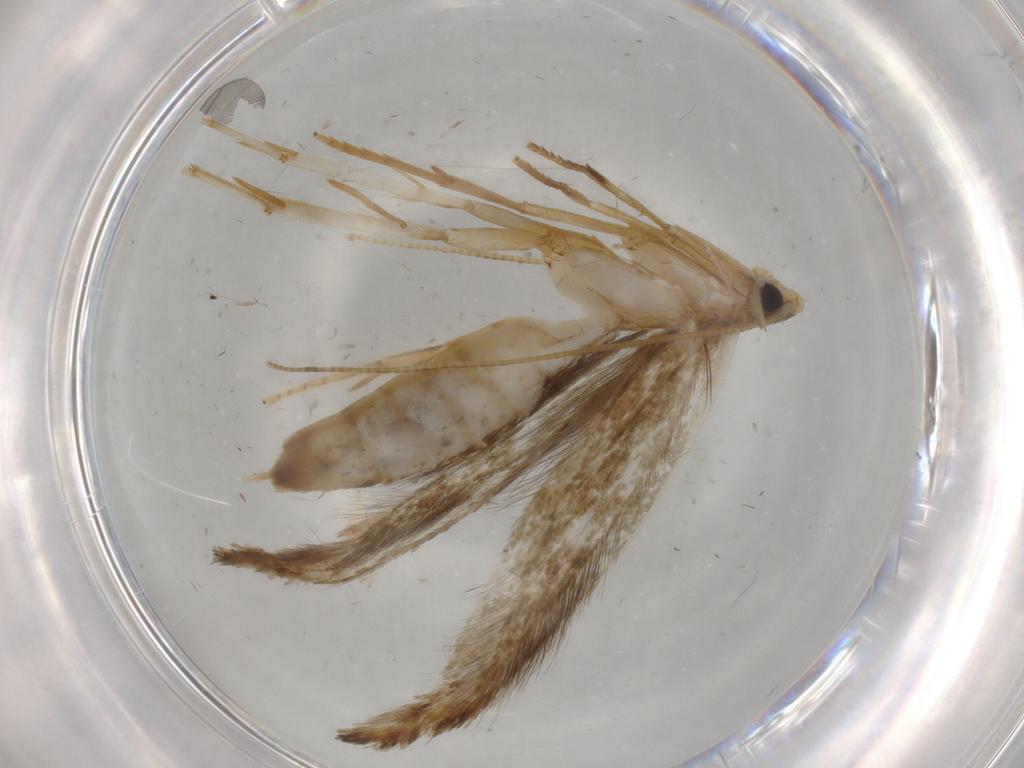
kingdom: Animalia
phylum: Arthropoda
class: Insecta
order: Lepidoptera
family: Tineidae
